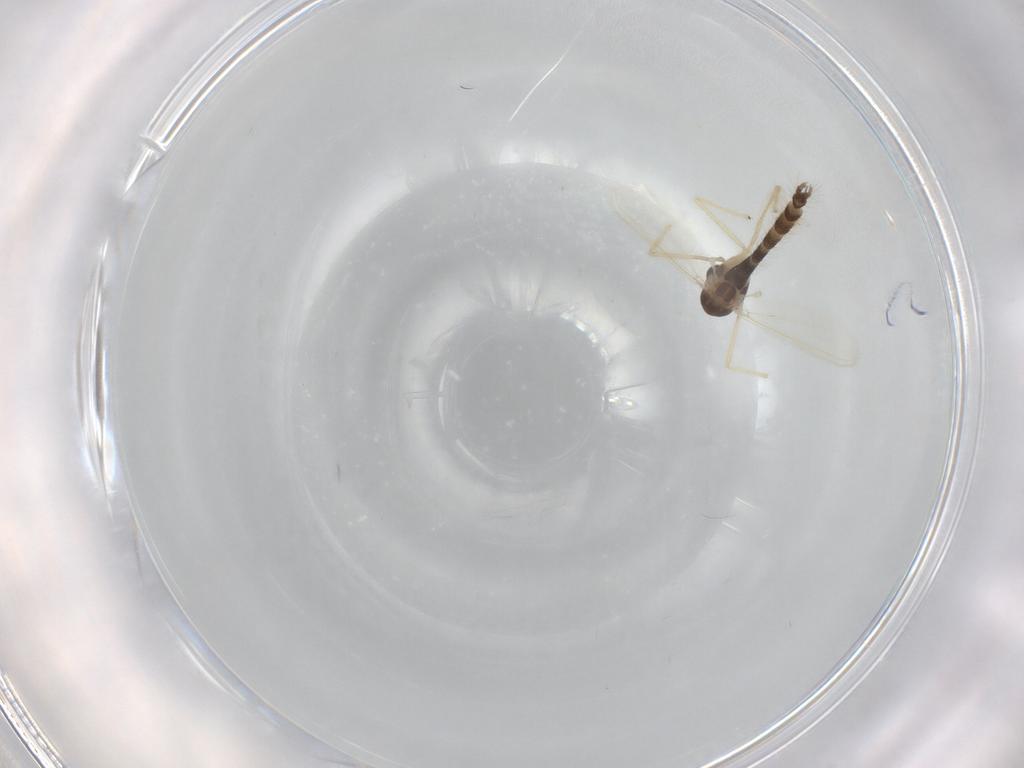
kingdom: Animalia
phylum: Arthropoda
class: Insecta
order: Diptera
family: Chironomidae
